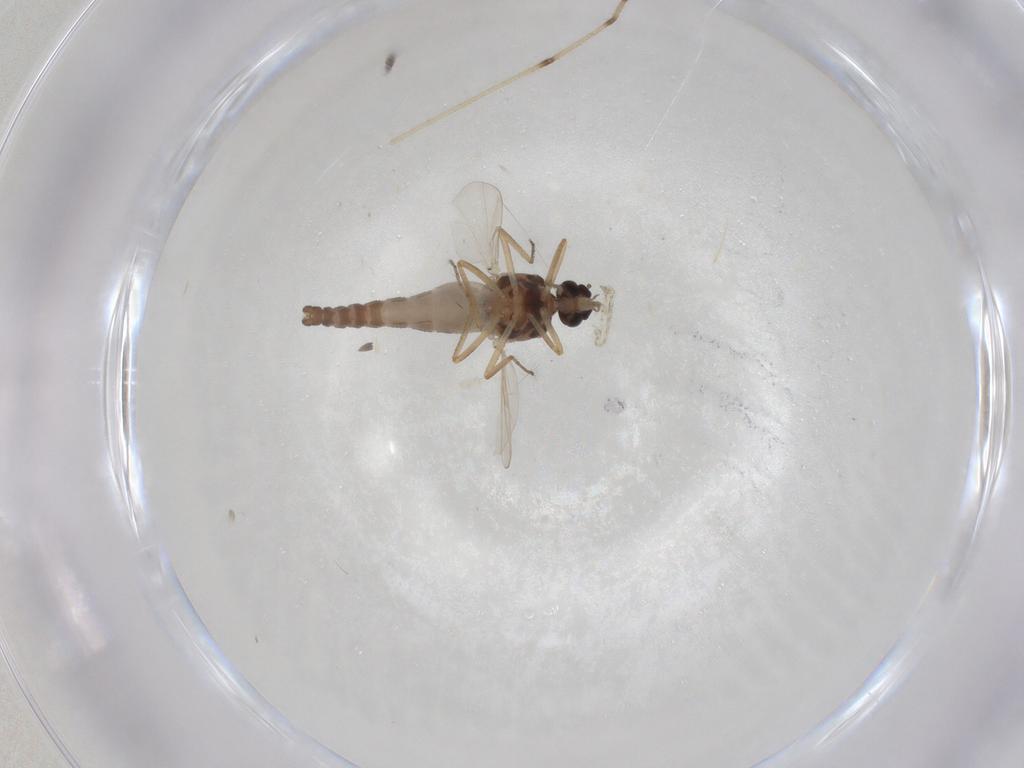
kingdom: Animalia
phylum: Arthropoda
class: Insecta
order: Diptera
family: Ceratopogonidae
